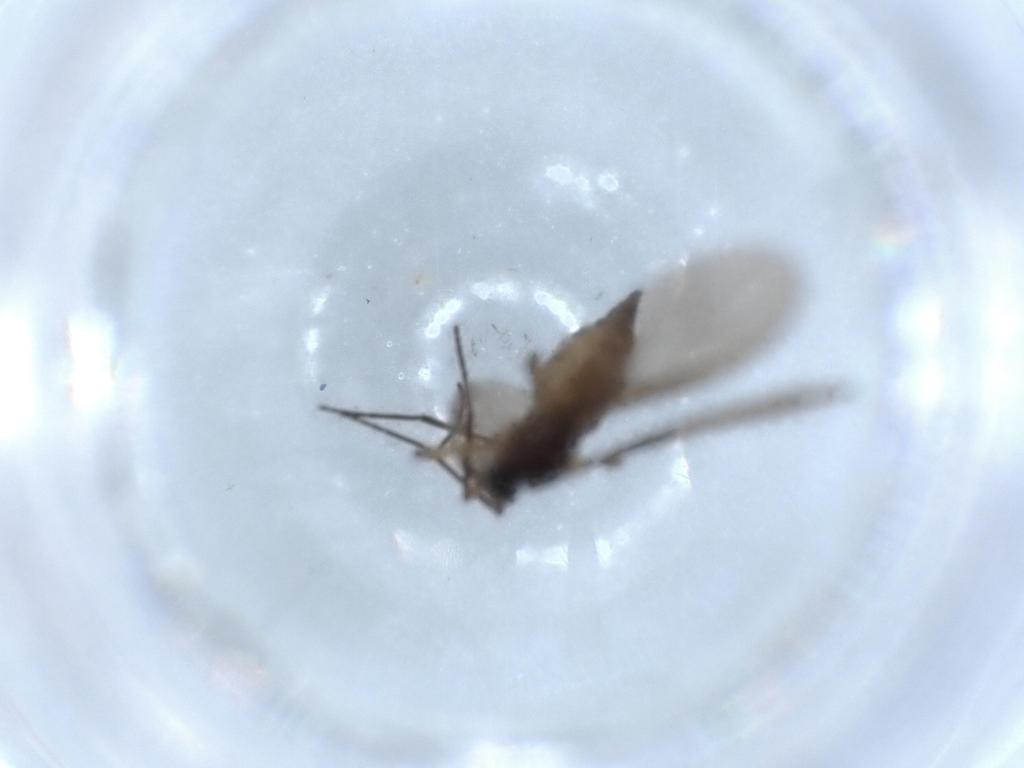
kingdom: Animalia
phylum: Arthropoda
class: Insecta
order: Diptera
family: Sciaridae
